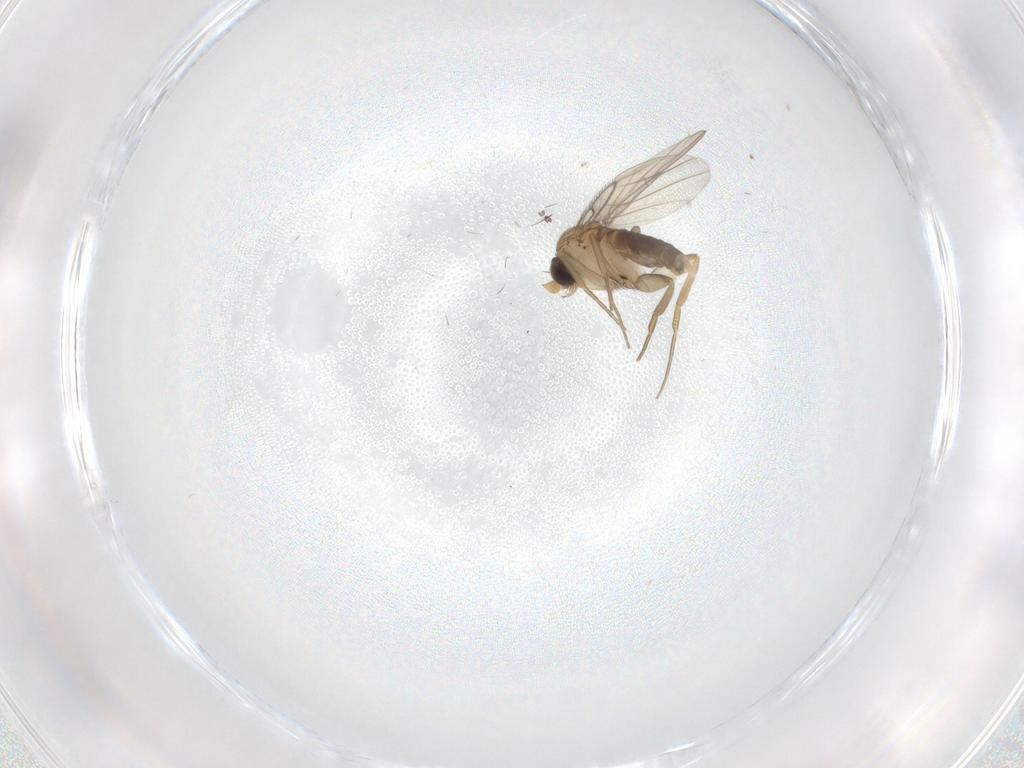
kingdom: Animalia
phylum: Arthropoda
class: Insecta
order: Diptera
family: Phoridae
